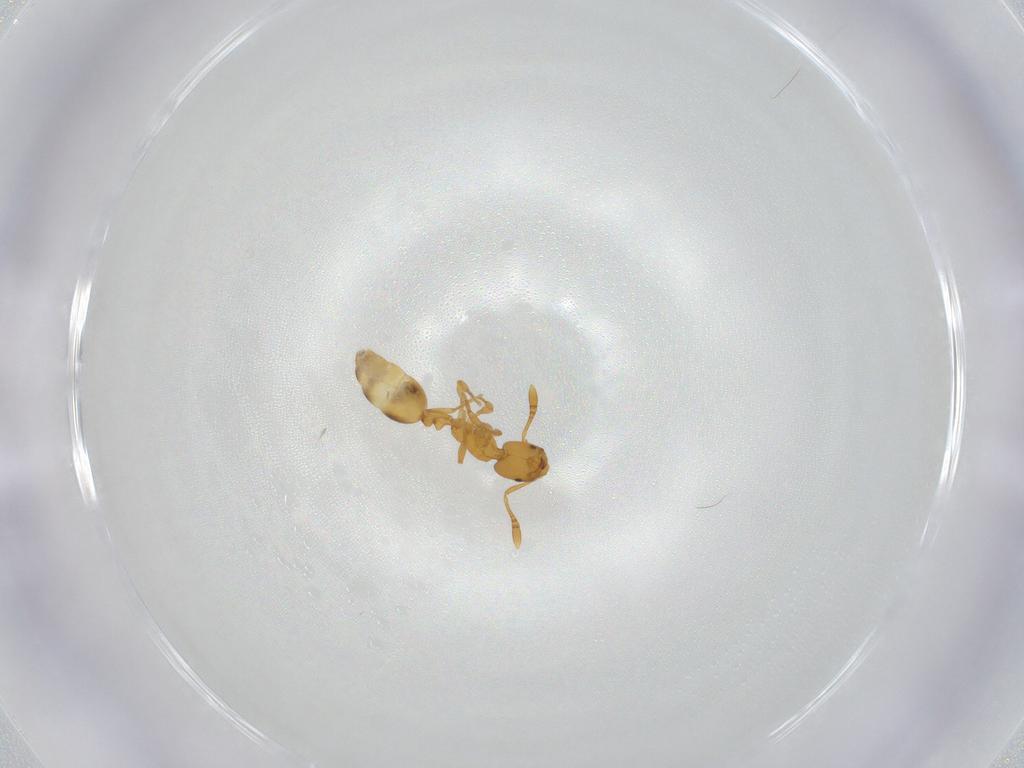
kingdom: Animalia
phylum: Arthropoda
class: Insecta
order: Hymenoptera
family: Formicidae
